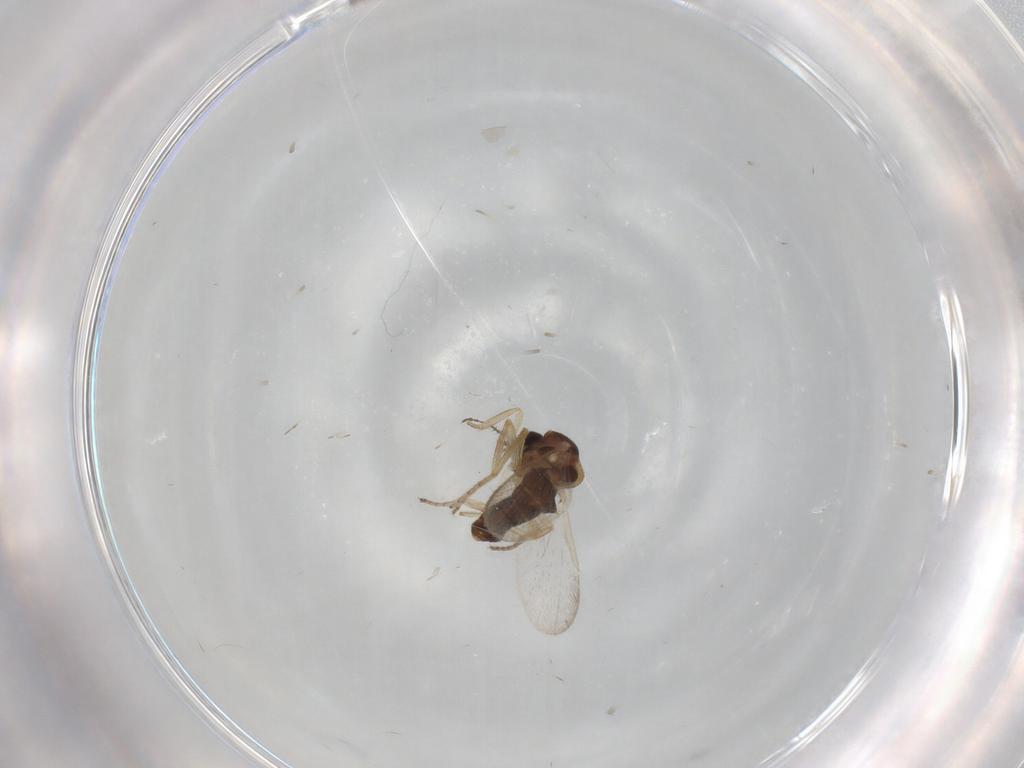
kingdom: Animalia
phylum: Arthropoda
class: Insecta
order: Diptera
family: Ceratopogonidae
